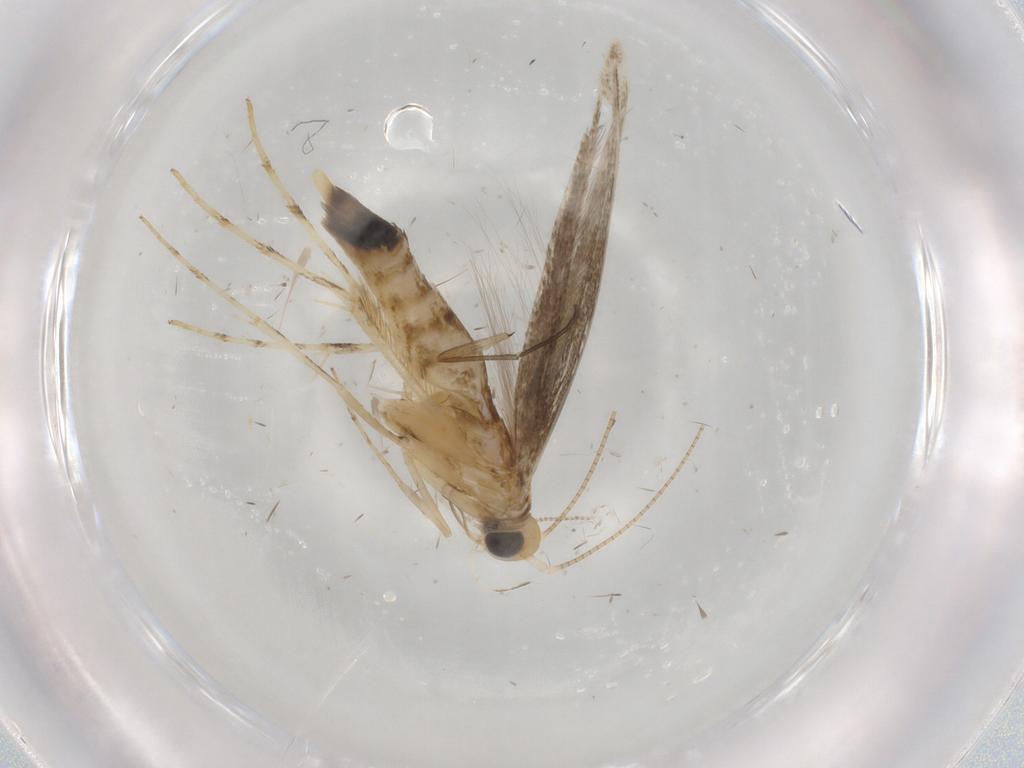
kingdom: Animalia
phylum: Arthropoda
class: Insecta
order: Lepidoptera
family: Gracillariidae
